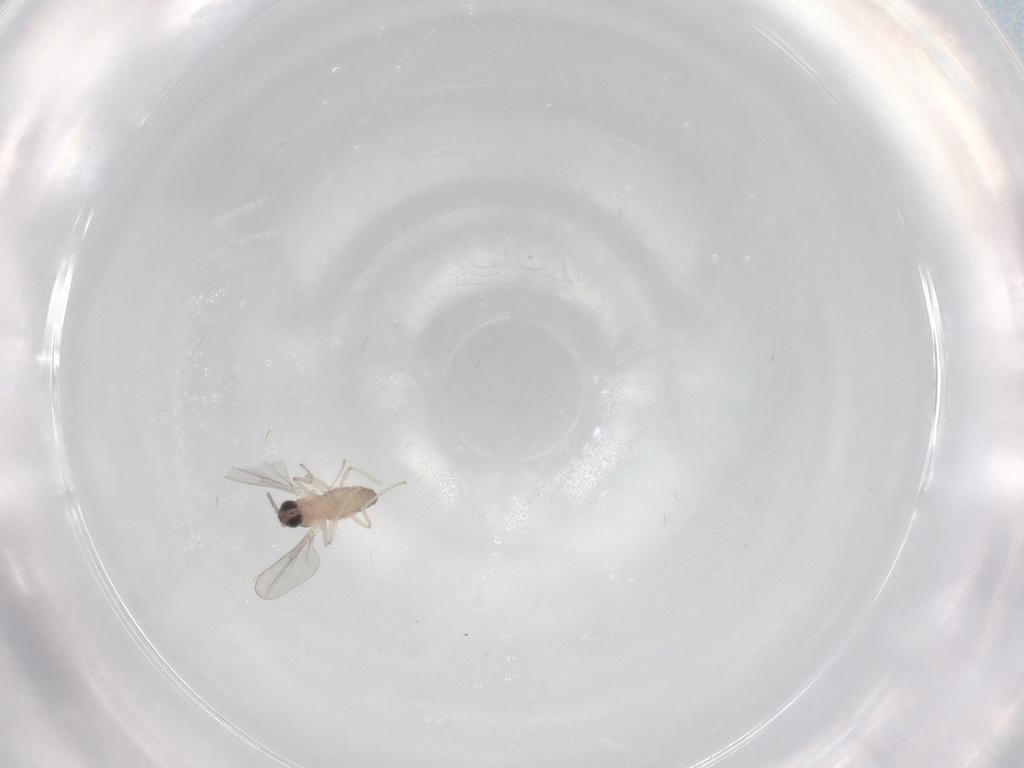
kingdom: Animalia
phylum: Arthropoda
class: Insecta
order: Diptera
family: Cecidomyiidae
